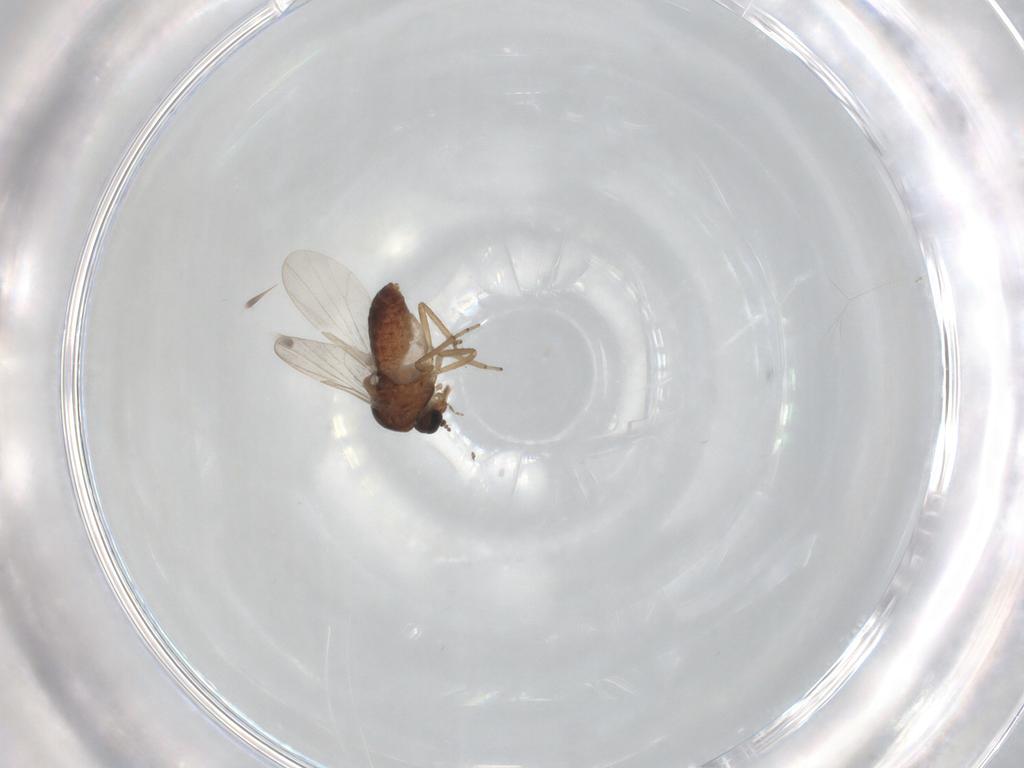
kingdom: Animalia
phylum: Arthropoda
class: Insecta
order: Diptera
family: Ceratopogonidae
